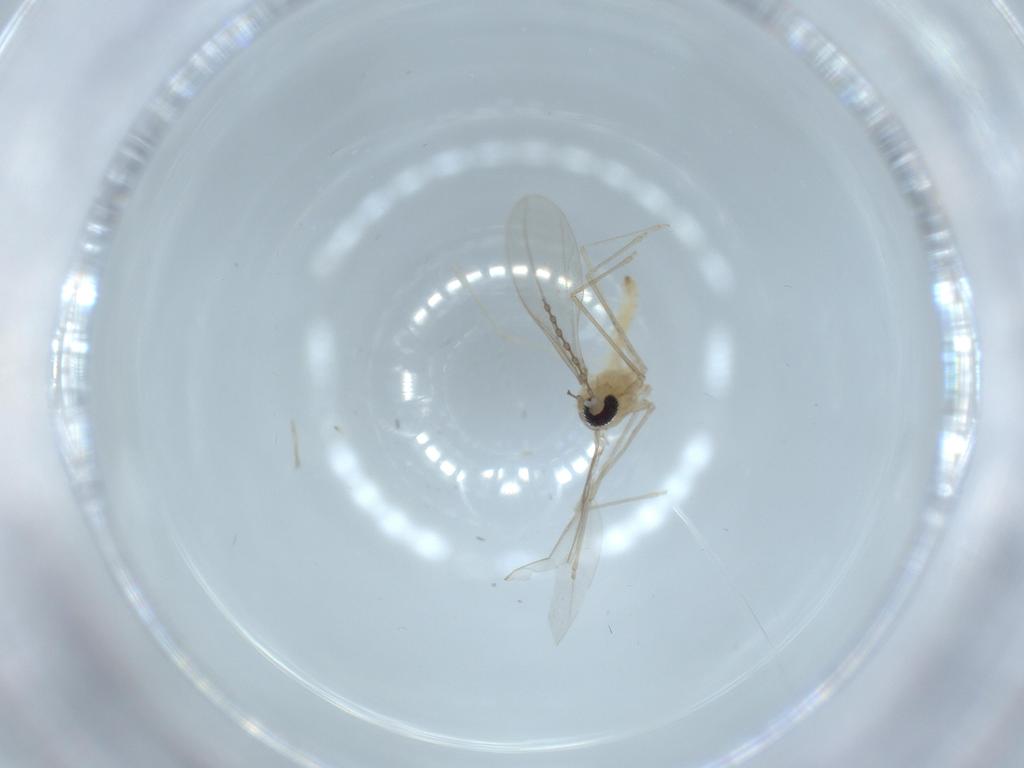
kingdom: Animalia
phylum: Arthropoda
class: Insecta
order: Diptera
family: Cecidomyiidae
